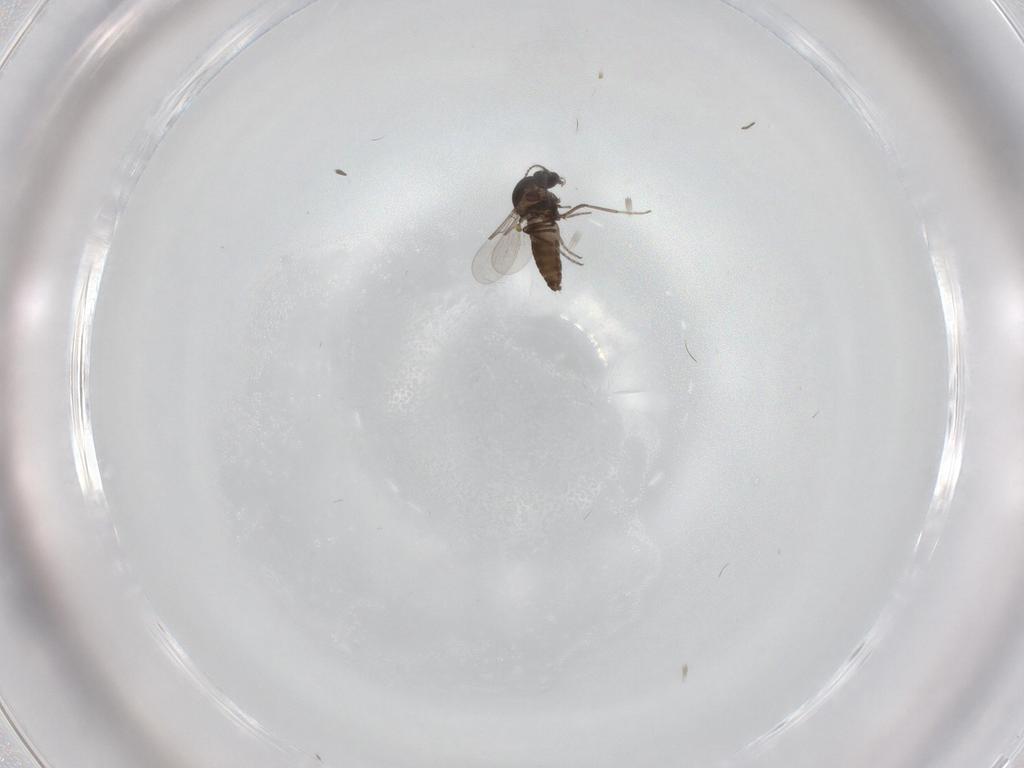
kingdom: Animalia
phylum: Arthropoda
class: Insecta
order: Diptera
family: Ceratopogonidae
